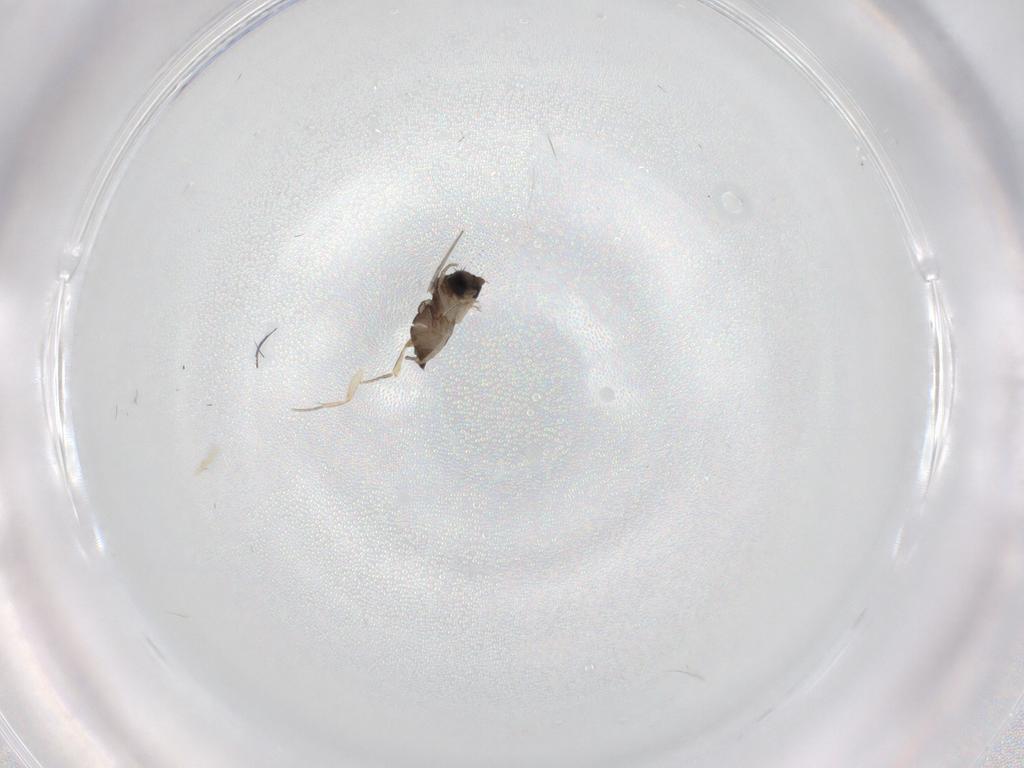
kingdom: Animalia
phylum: Arthropoda
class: Insecta
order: Diptera
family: Phoridae
